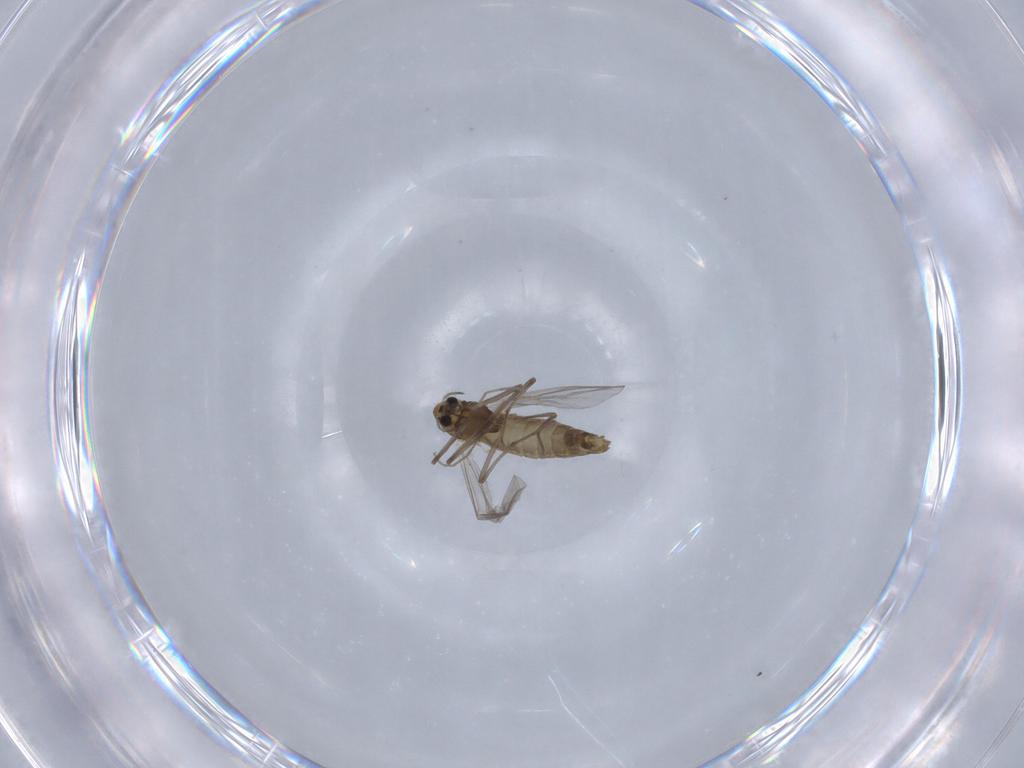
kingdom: Animalia
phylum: Arthropoda
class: Insecta
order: Diptera
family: Chironomidae
